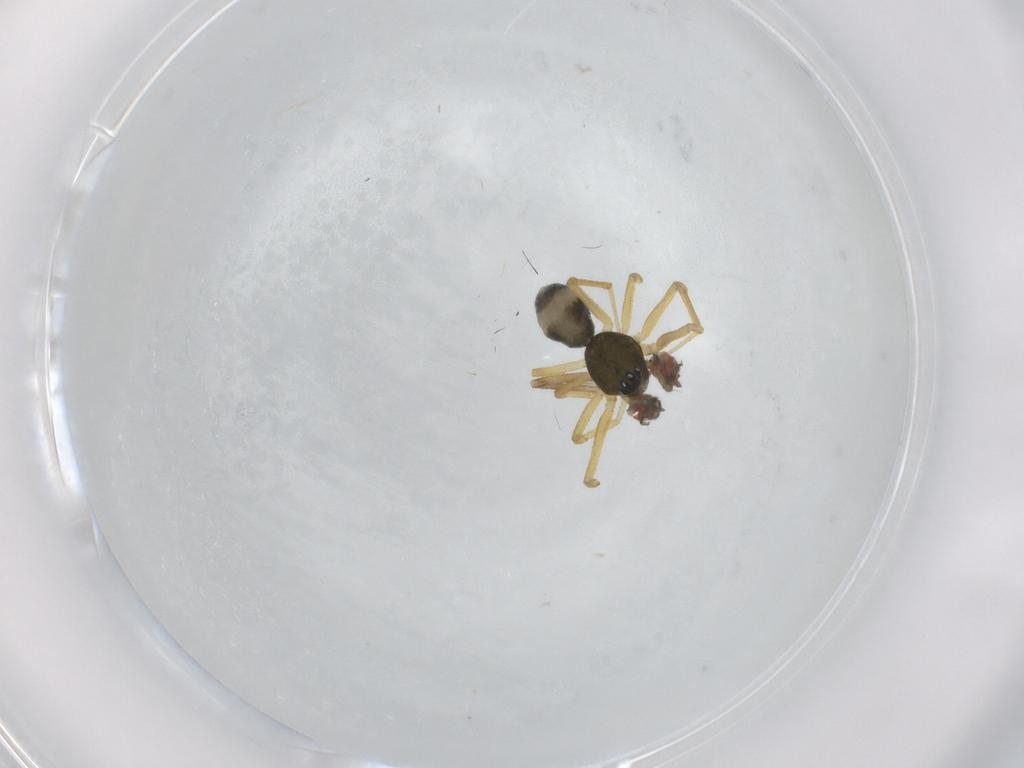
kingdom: Animalia
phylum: Arthropoda
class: Arachnida
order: Araneae
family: Linyphiidae
